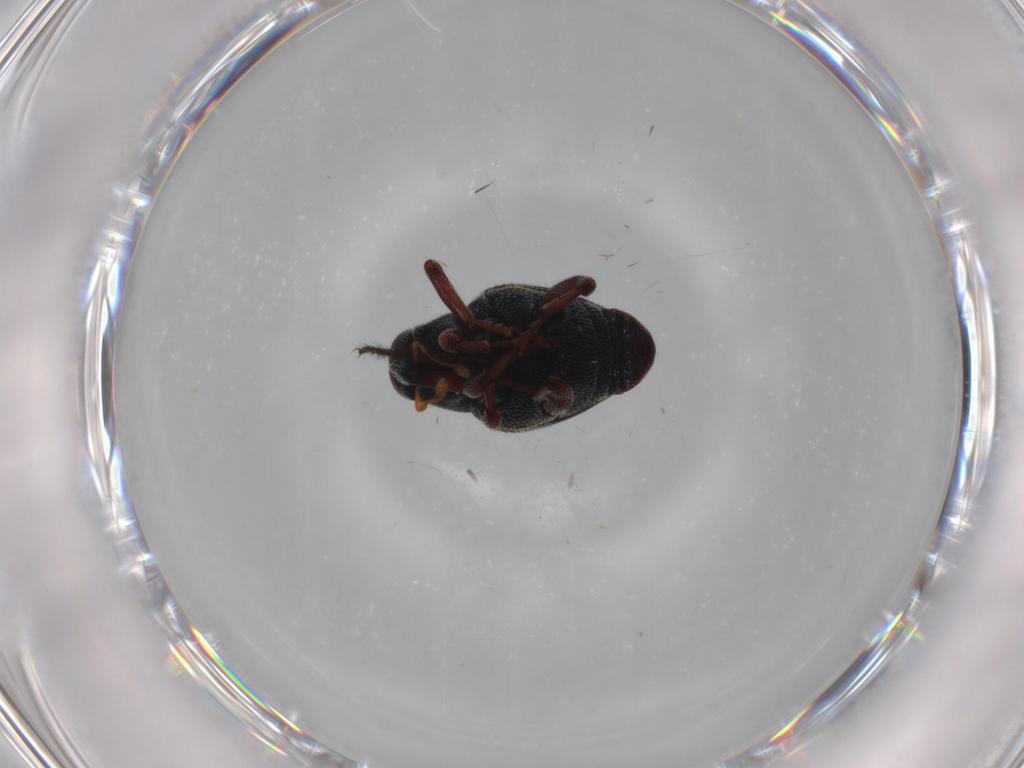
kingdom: Animalia
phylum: Arthropoda
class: Insecta
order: Coleoptera
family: Curculionidae
